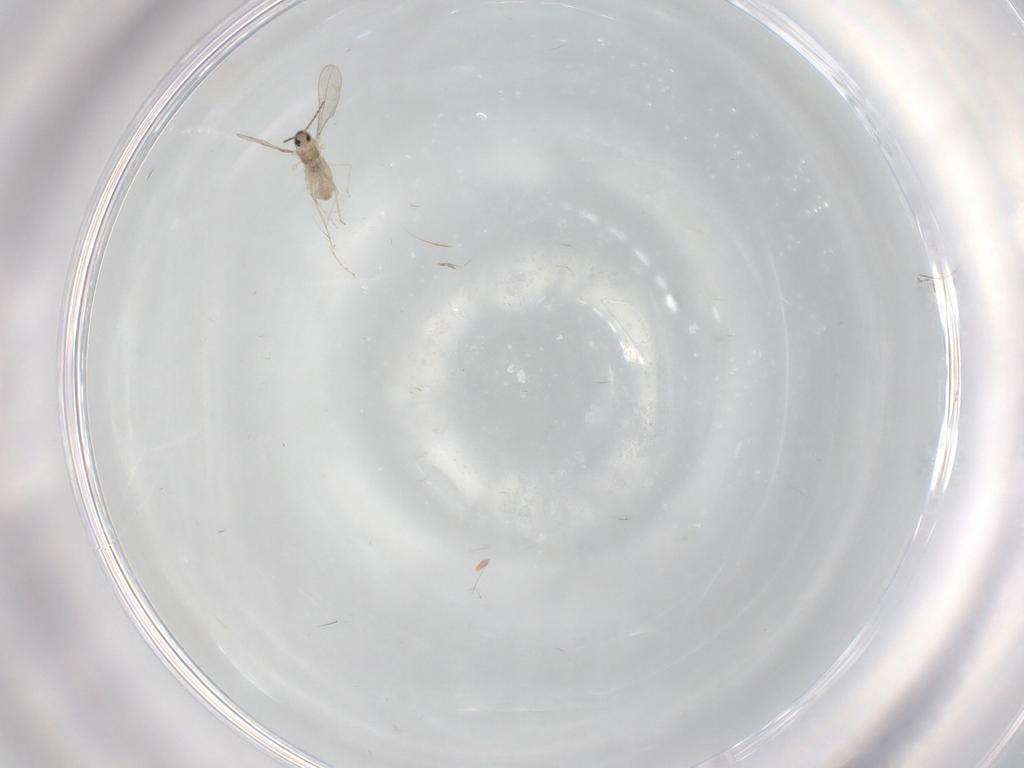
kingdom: Animalia
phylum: Arthropoda
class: Insecta
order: Diptera
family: Cecidomyiidae
